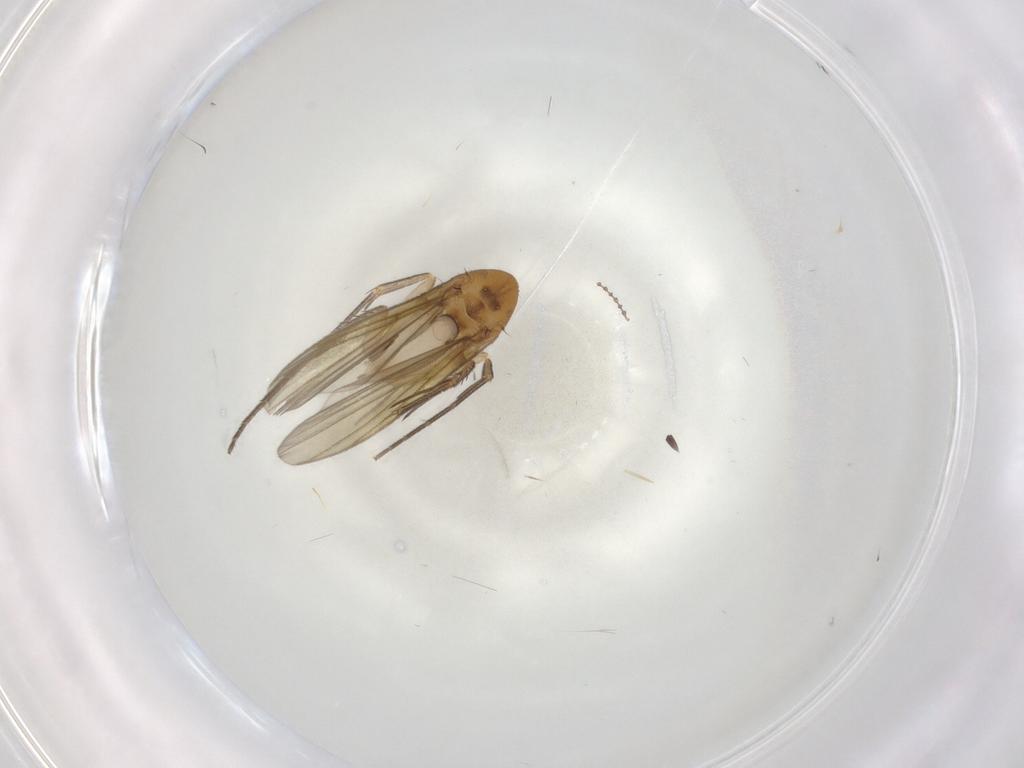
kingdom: Animalia
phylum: Arthropoda
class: Insecta
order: Diptera
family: Mycetophilidae
